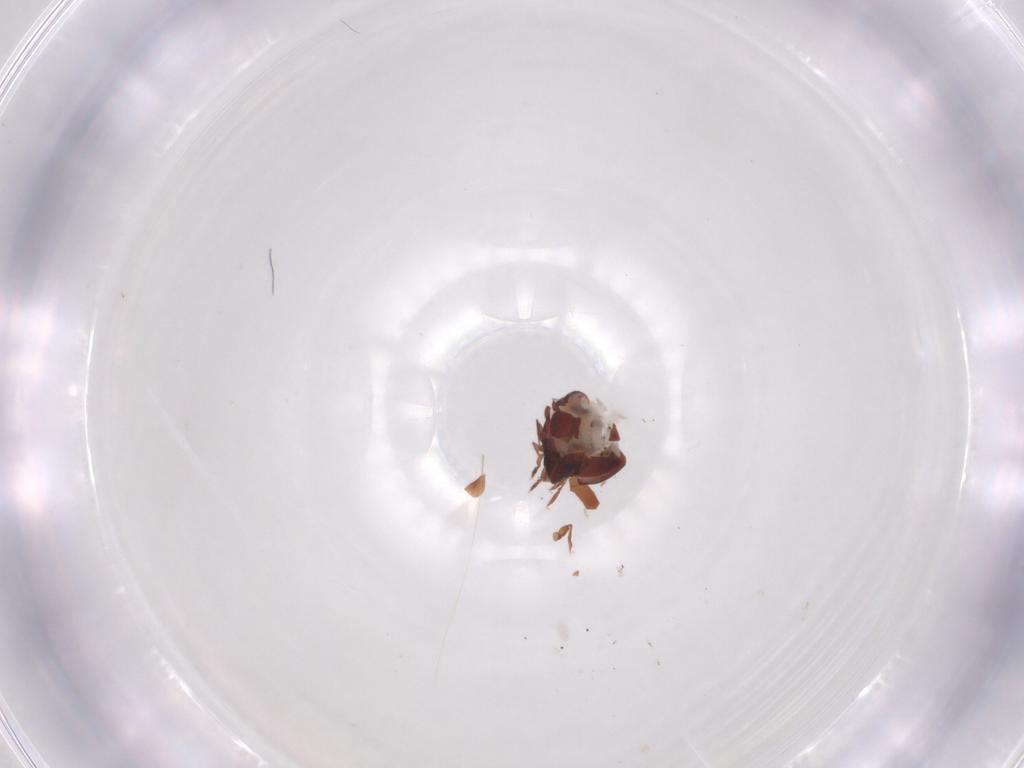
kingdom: Animalia
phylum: Arthropoda
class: Arachnida
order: Sarcoptiformes
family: Humerobatidae
